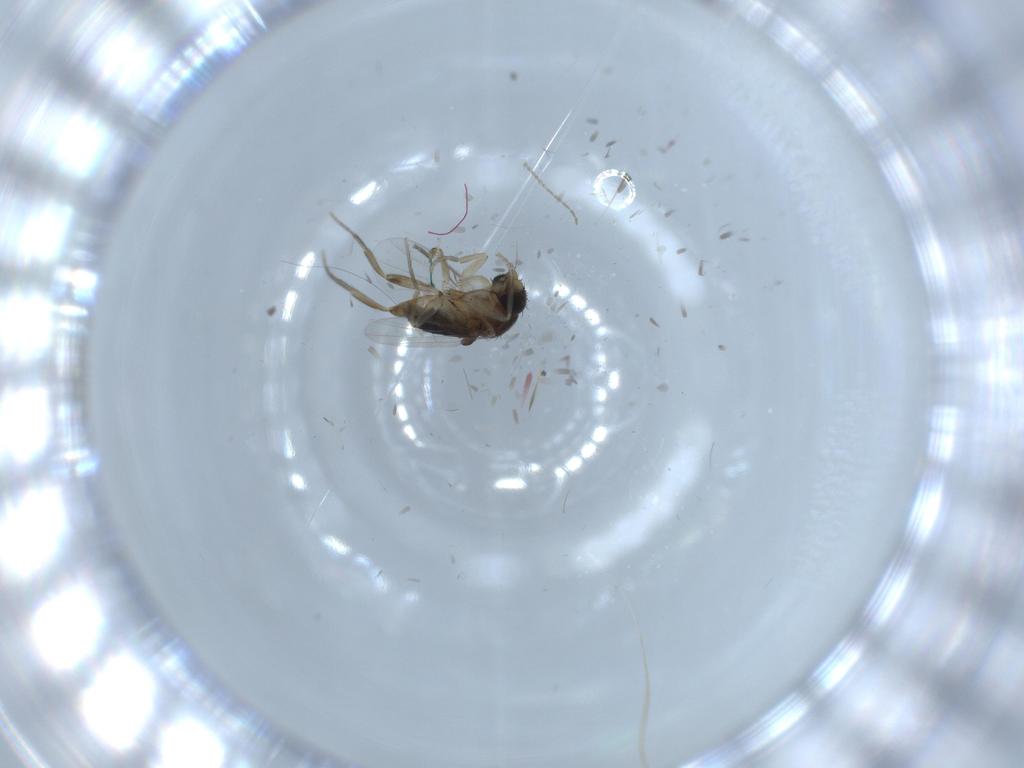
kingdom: Animalia
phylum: Arthropoda
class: Insecta
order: Diptera
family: Phoridae
